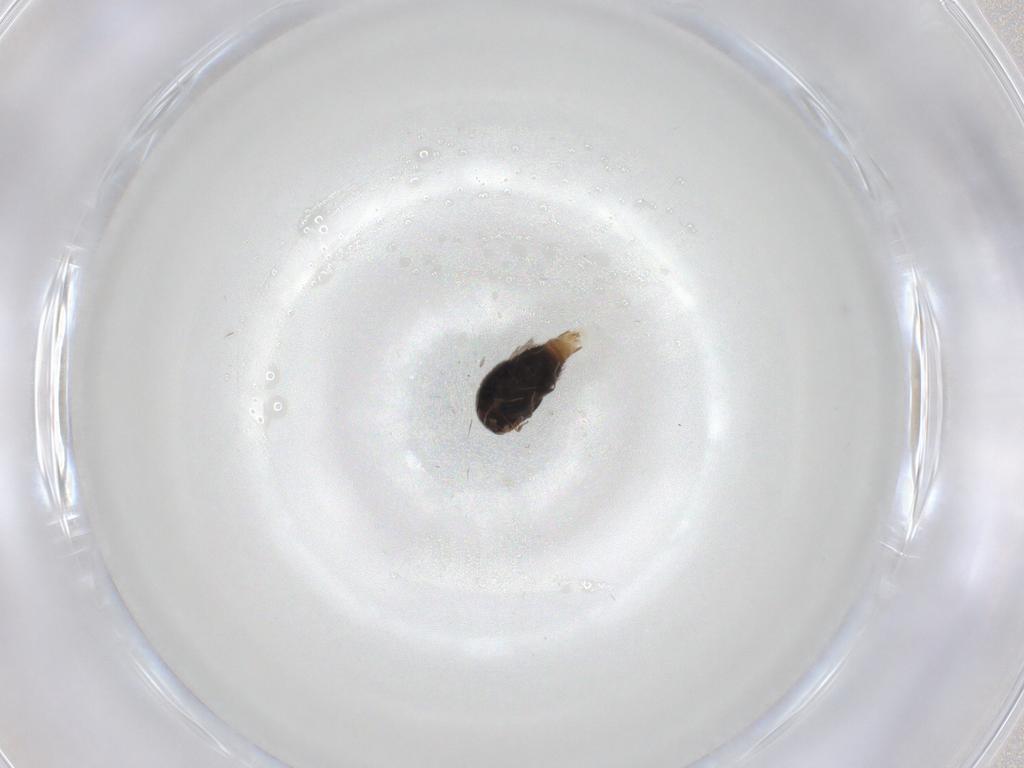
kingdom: Animalia
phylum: Arthropoda
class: Insecta
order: Coleoptera
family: Staphylinidae
